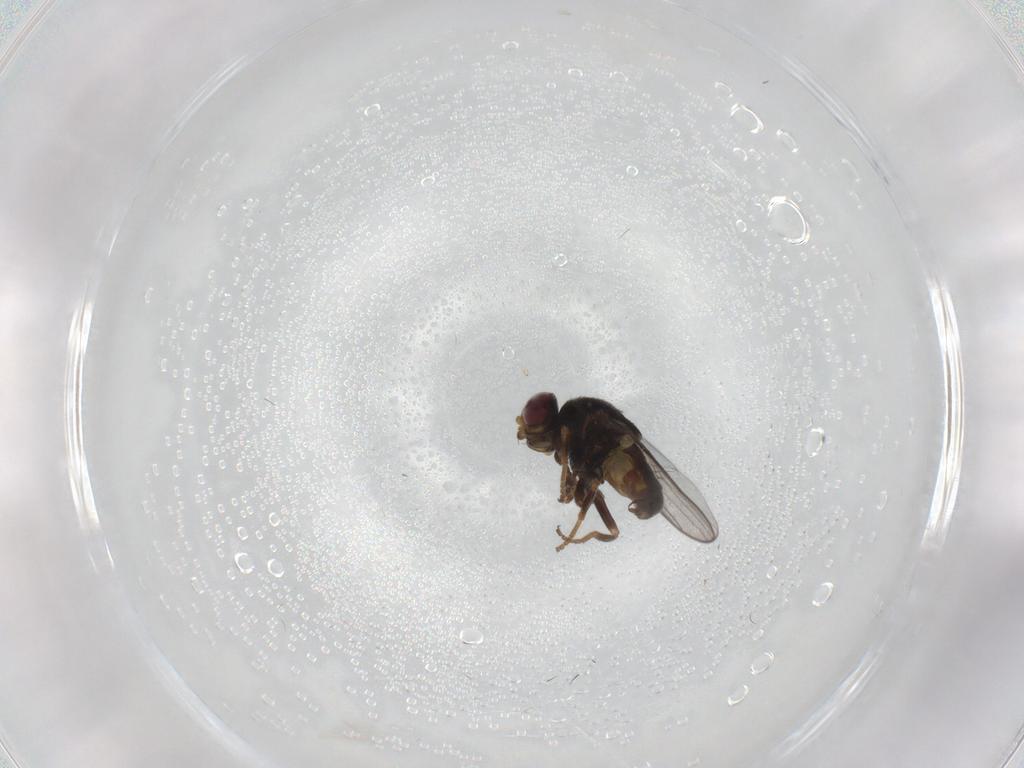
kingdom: Animalia
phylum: Arthropoda
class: Insecta
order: Diptera
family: Chloropidae
